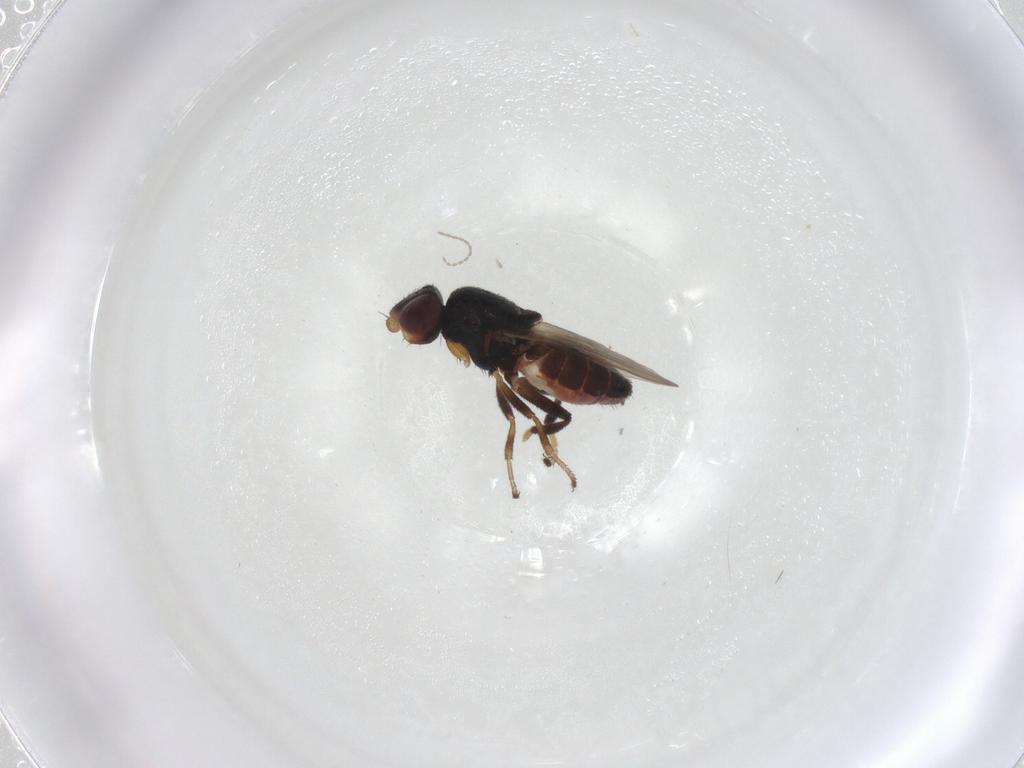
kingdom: Animalia
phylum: Arthropoda
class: Insecta
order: Diptera
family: Chloropidae
